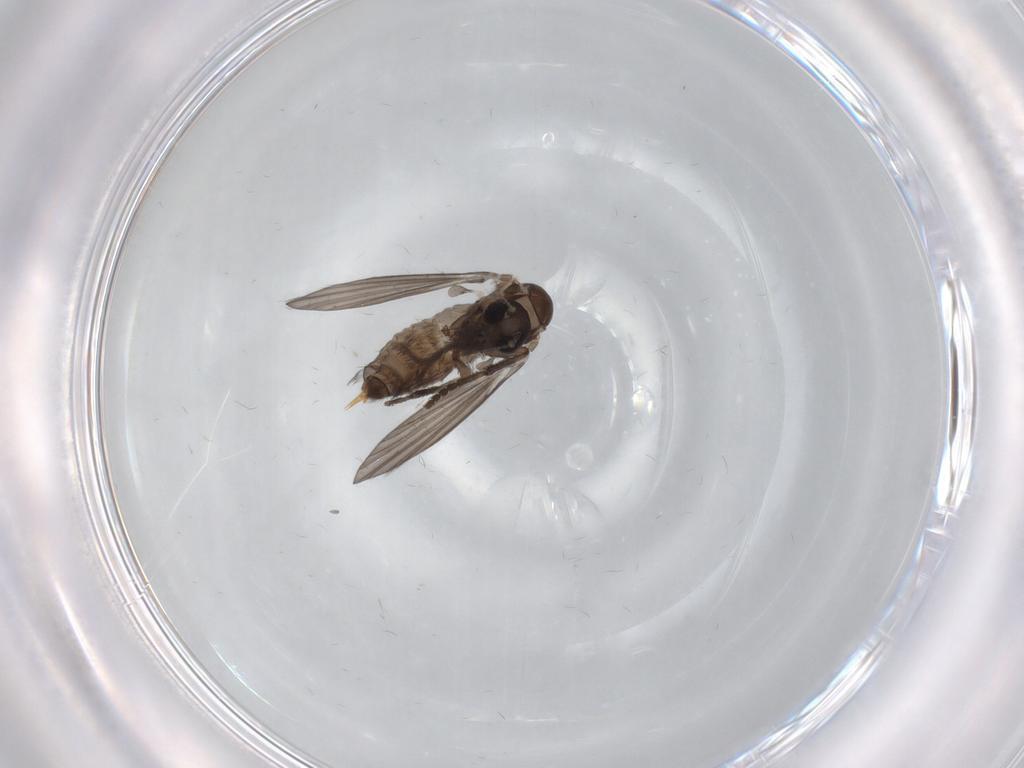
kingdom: Animalia
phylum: Arthropoda
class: Insecta
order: Diptera
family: Psychodidae
